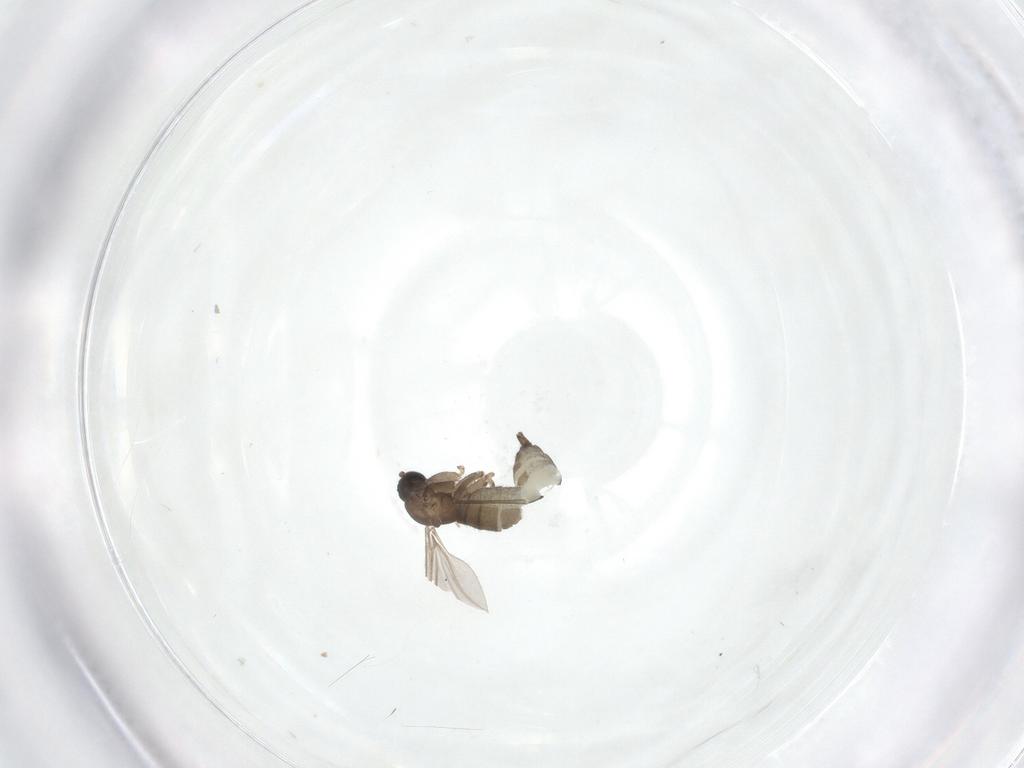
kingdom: Animalia
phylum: Arthropoda
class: Insecta
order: Diptera
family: Sciaridae
